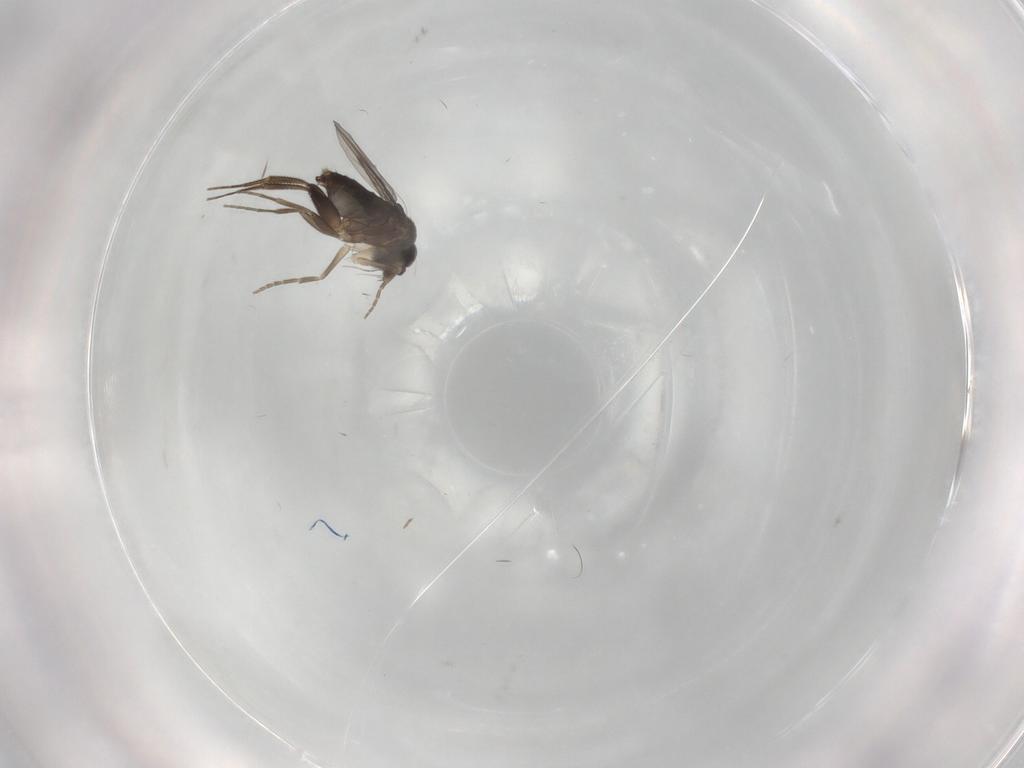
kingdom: Animalia
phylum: Arthropoda
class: Insecta
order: Diptera
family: Phoridae
